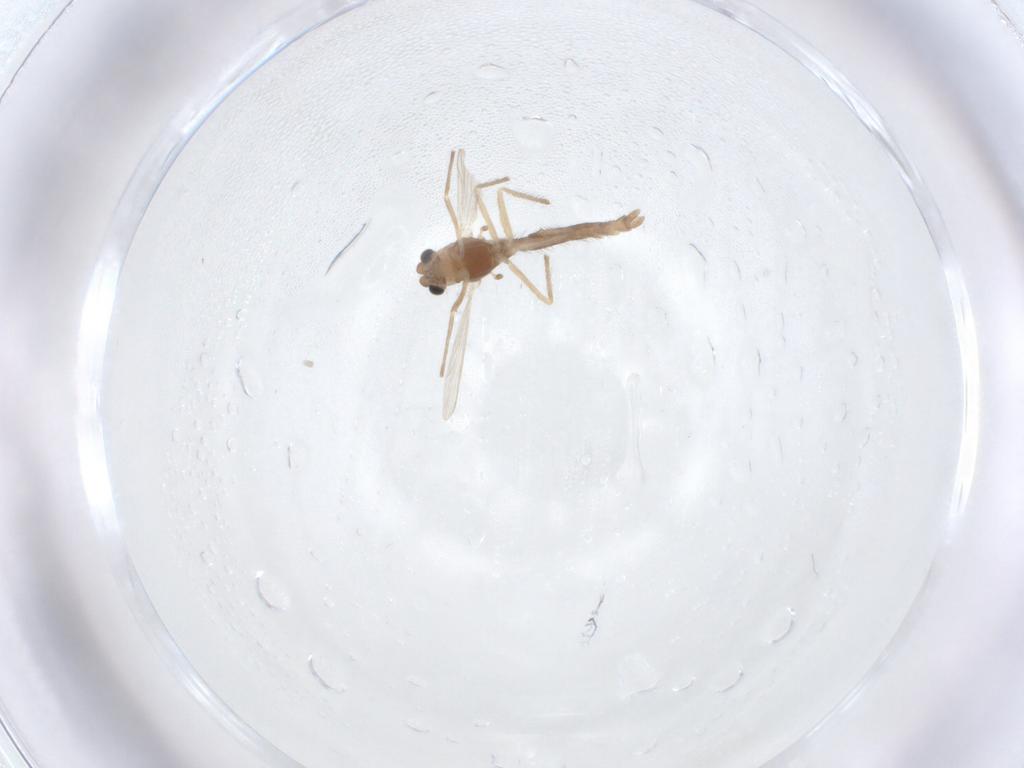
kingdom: Animalia
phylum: Arthropoda
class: Insecta
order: Diptera
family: Chironomidae
